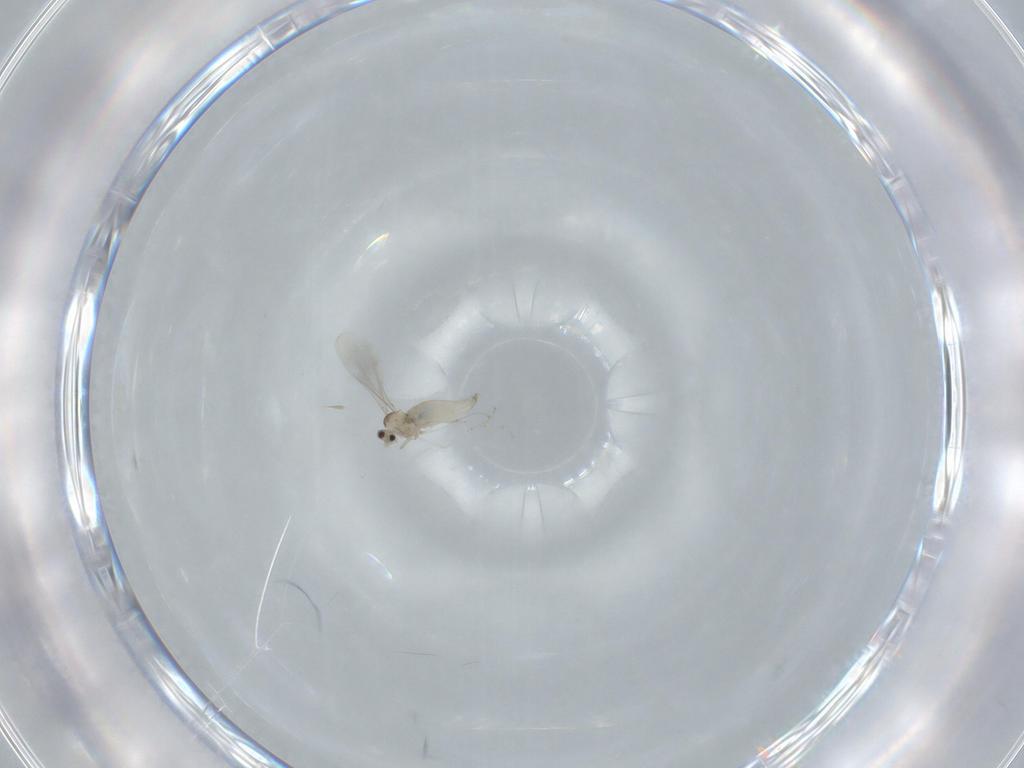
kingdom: Animalia
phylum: Arthropoda
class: Insecta
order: Diptera
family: Cecidomyiidae
